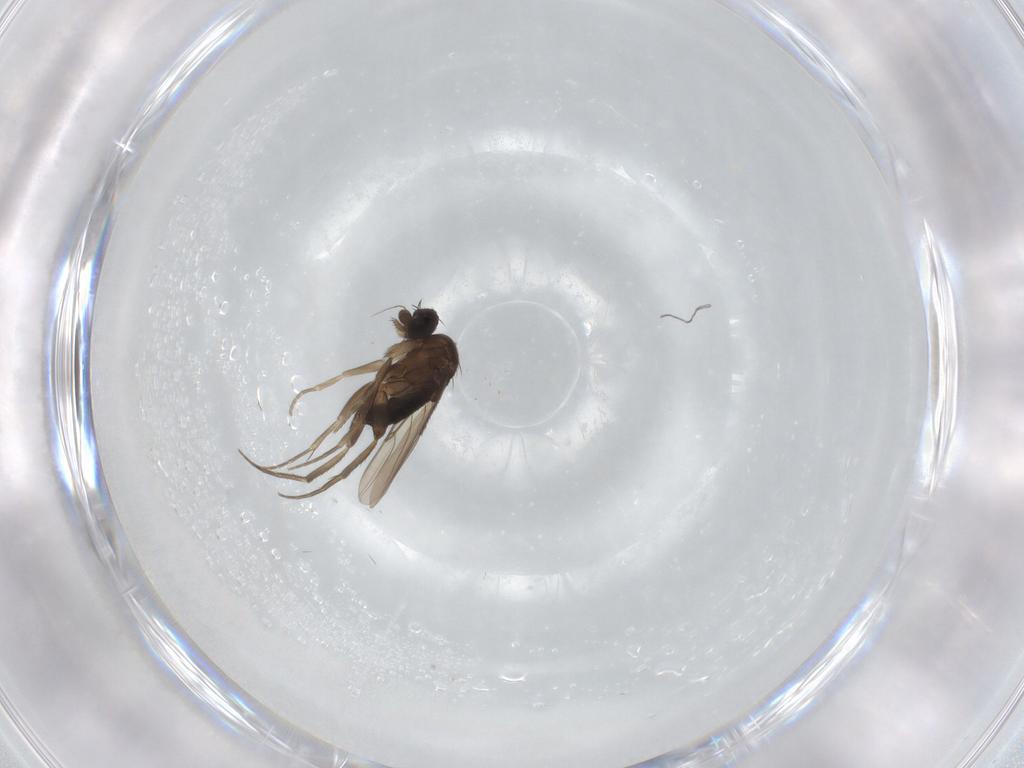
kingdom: Animalia
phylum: Arthropoda
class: Insecta
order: Diptera
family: Phoridae
